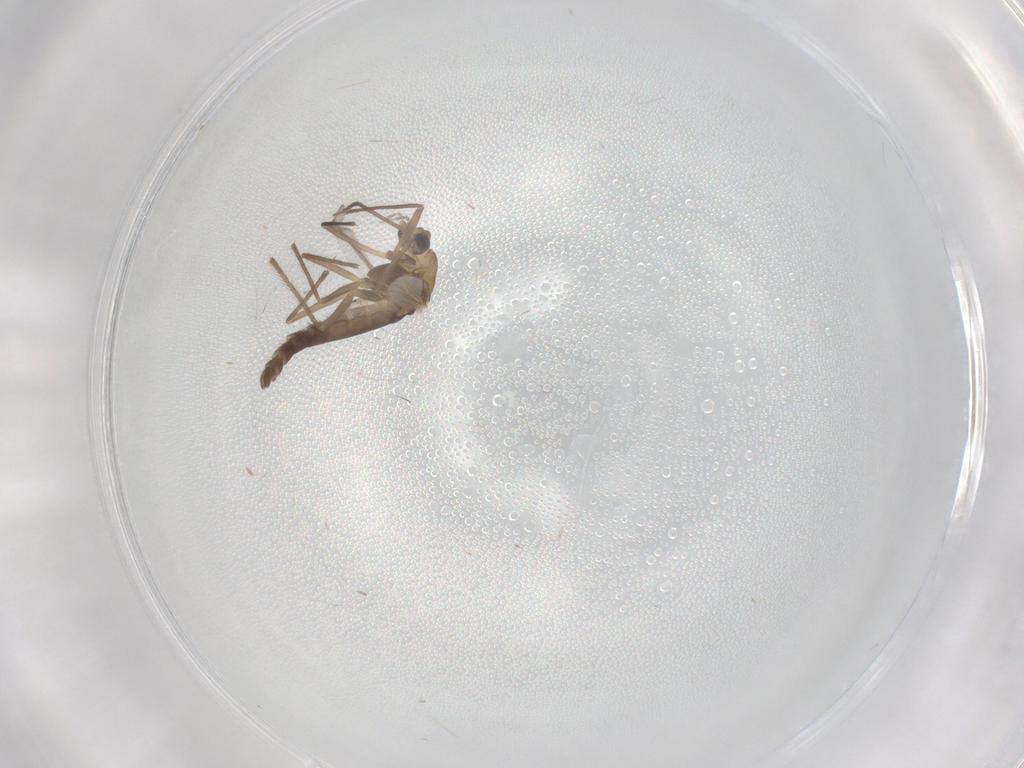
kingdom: Animalia
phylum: Arthropoda
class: Insecta
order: Diptera
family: Chironomidae
